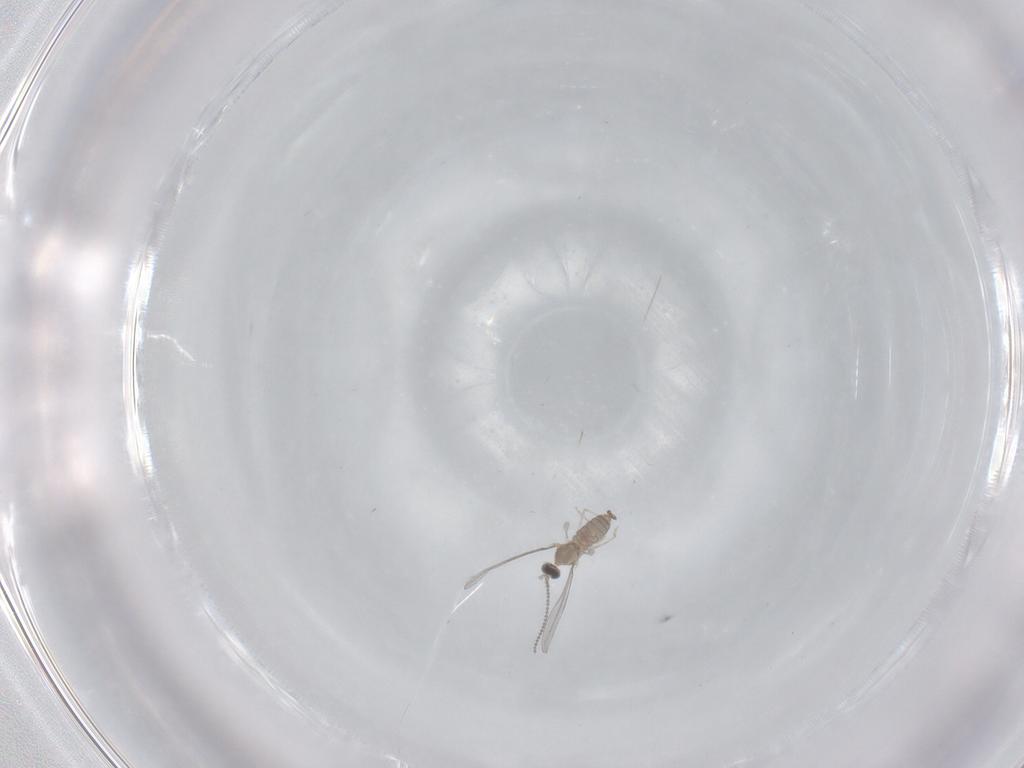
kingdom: Animalia
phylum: Arthropoda
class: Insecta
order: Diptera
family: Cecidomyiidae
